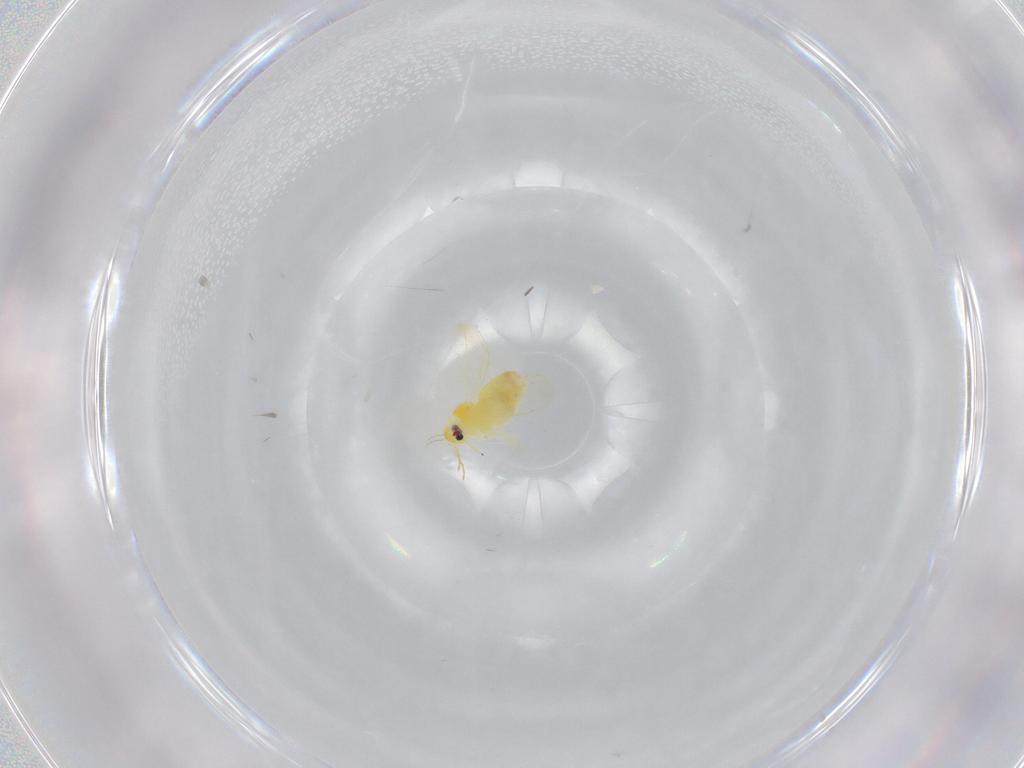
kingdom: Animalia
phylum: Arthropoda
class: Insecta
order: Hemiptera
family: Aleyrodidae
